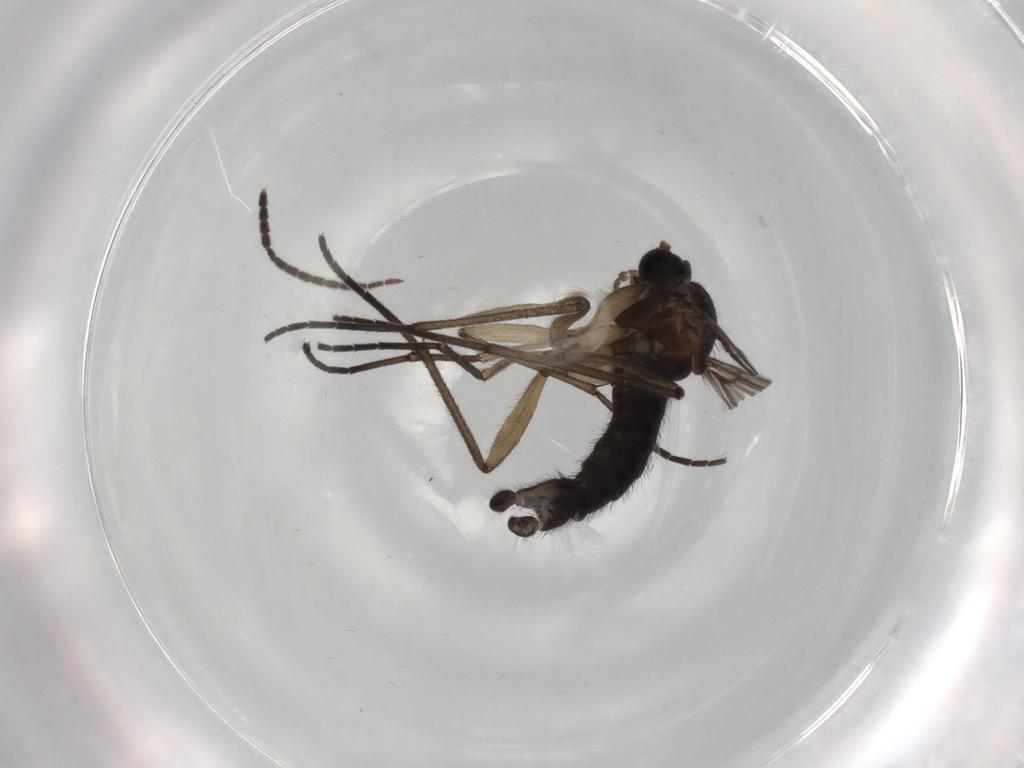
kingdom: Animalia
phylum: Arthropoda
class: Insecta
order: Diptera
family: Sciaridae
